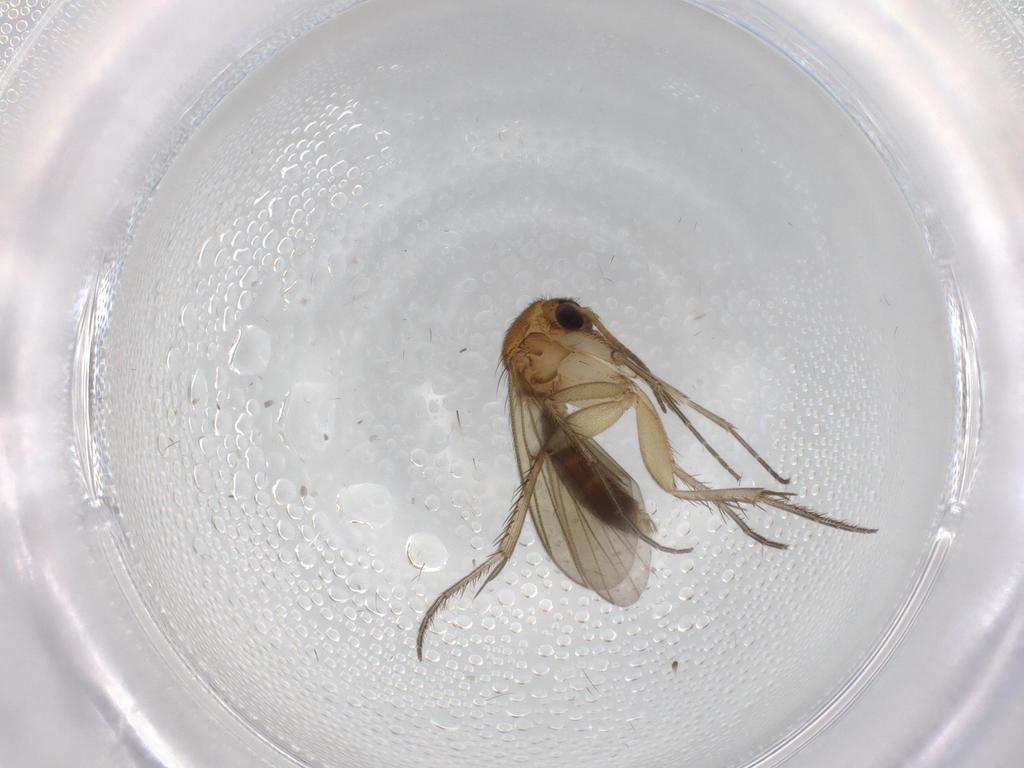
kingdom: Animalia
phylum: Arthropoda
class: Insecta
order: Diptera
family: Mycetophilidae
